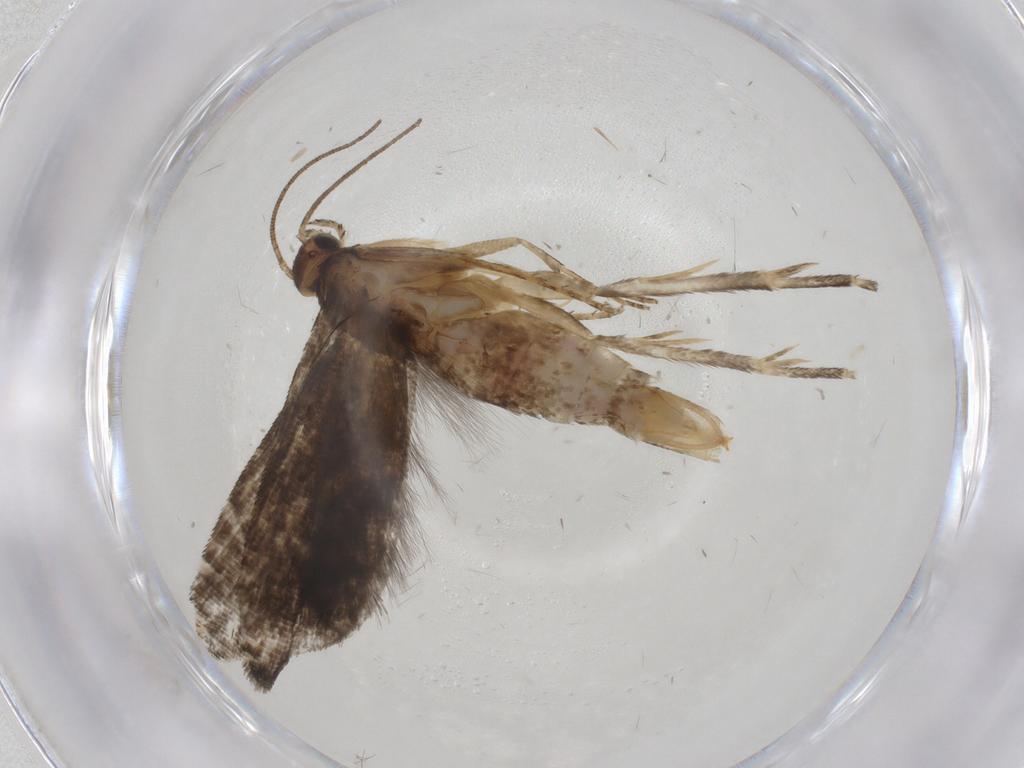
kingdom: Animalia
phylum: Arthropoda
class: Insecta
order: Lepidoptera
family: Glyphipterigidae
